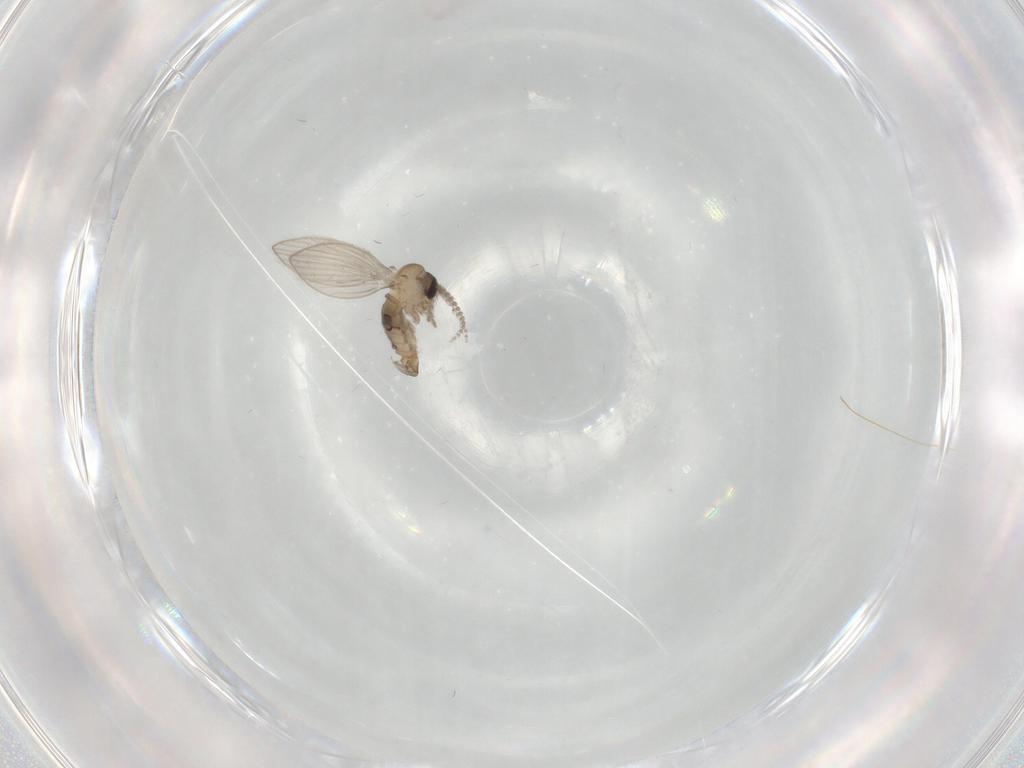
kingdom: Animalia
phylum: Arthropoda
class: Insecta
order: Diptera
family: Psychodidae
